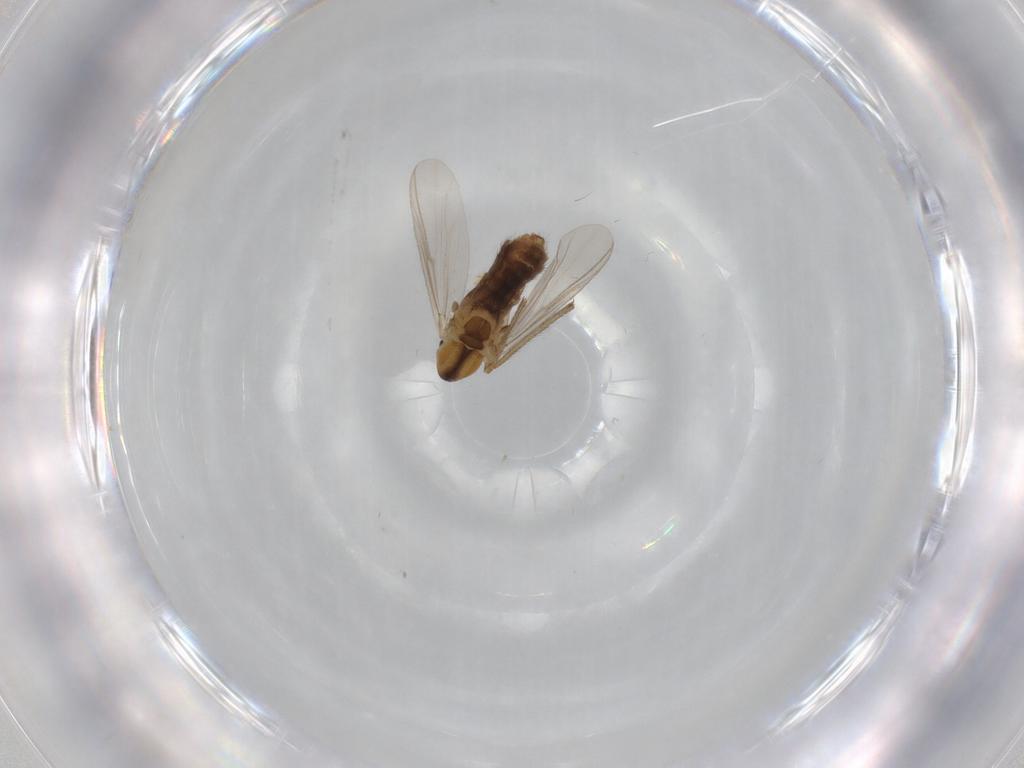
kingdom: Animalia
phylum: Arthropoda
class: Insecta
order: Diptera
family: Chironomidae
